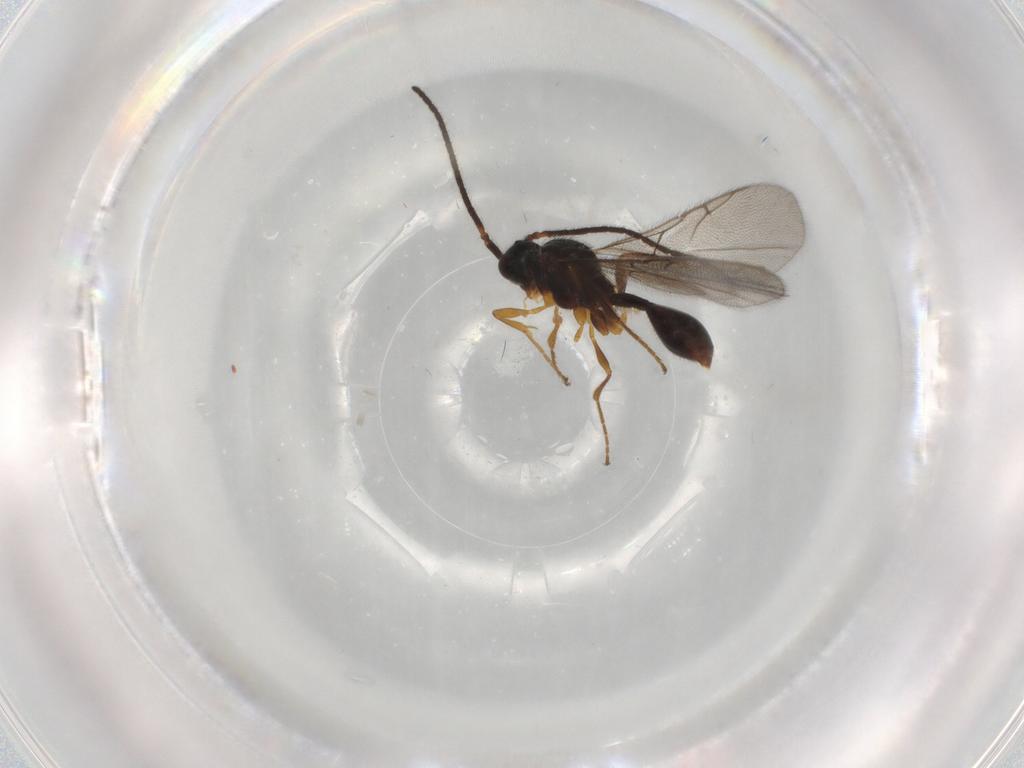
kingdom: Animalia
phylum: Arthropoda
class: Insecta
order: Hymenoptera
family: Diapriidae
